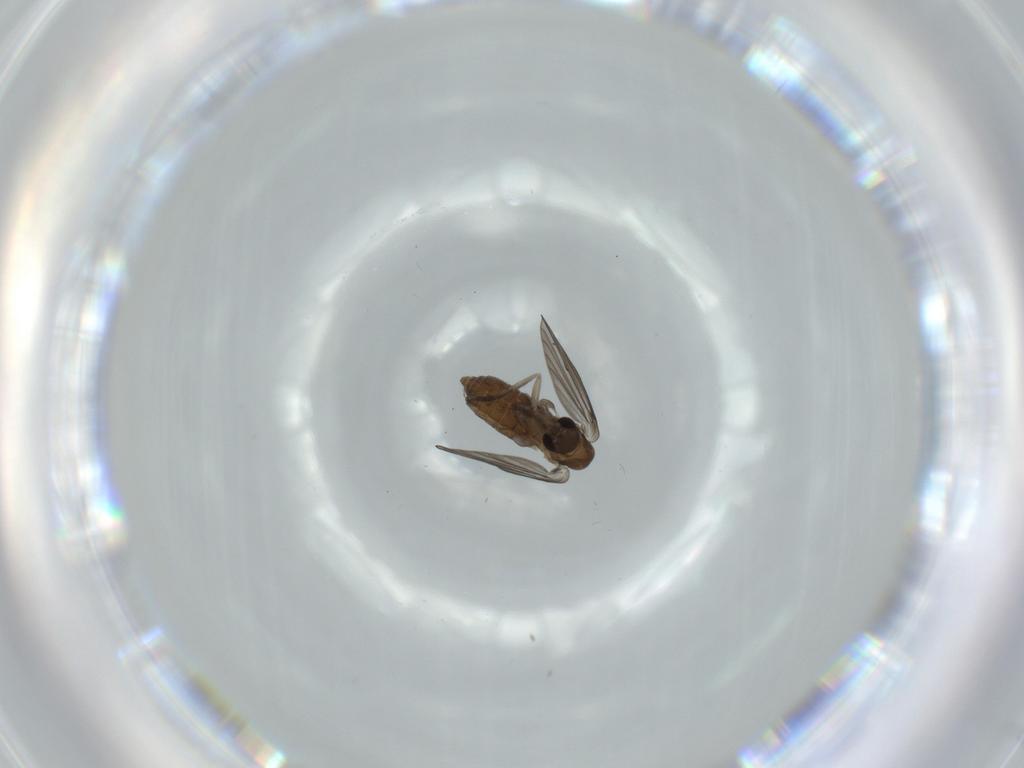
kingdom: Animalia
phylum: Arthropoda
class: Insecta
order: Diptera
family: Psychodidae
